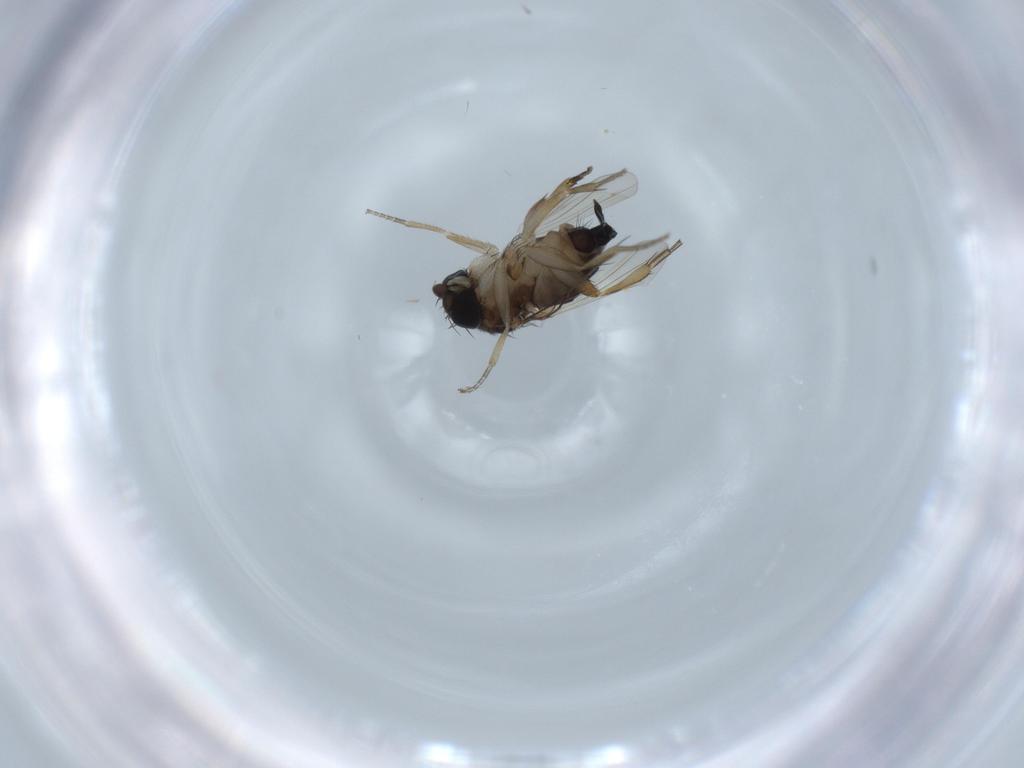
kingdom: Animalia
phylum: Arthropoda
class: Insecta
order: Diptera
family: Phoridae
